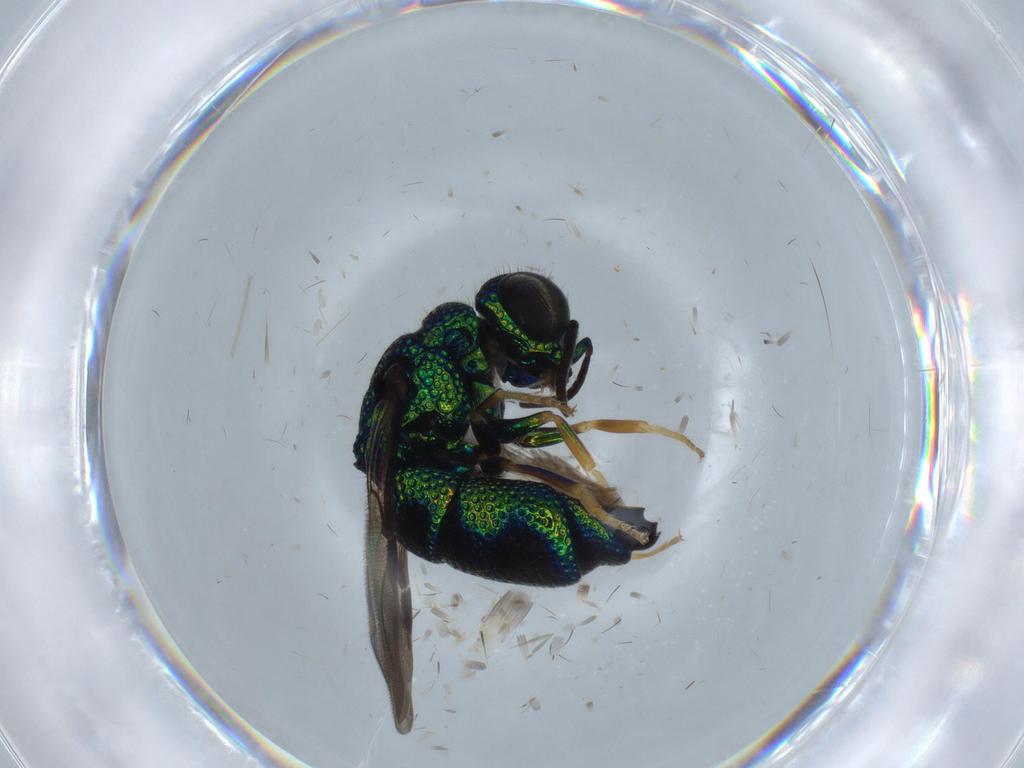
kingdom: Animalia
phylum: Arthropoda
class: Insecta
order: Hymenoptera
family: Chrysididae
